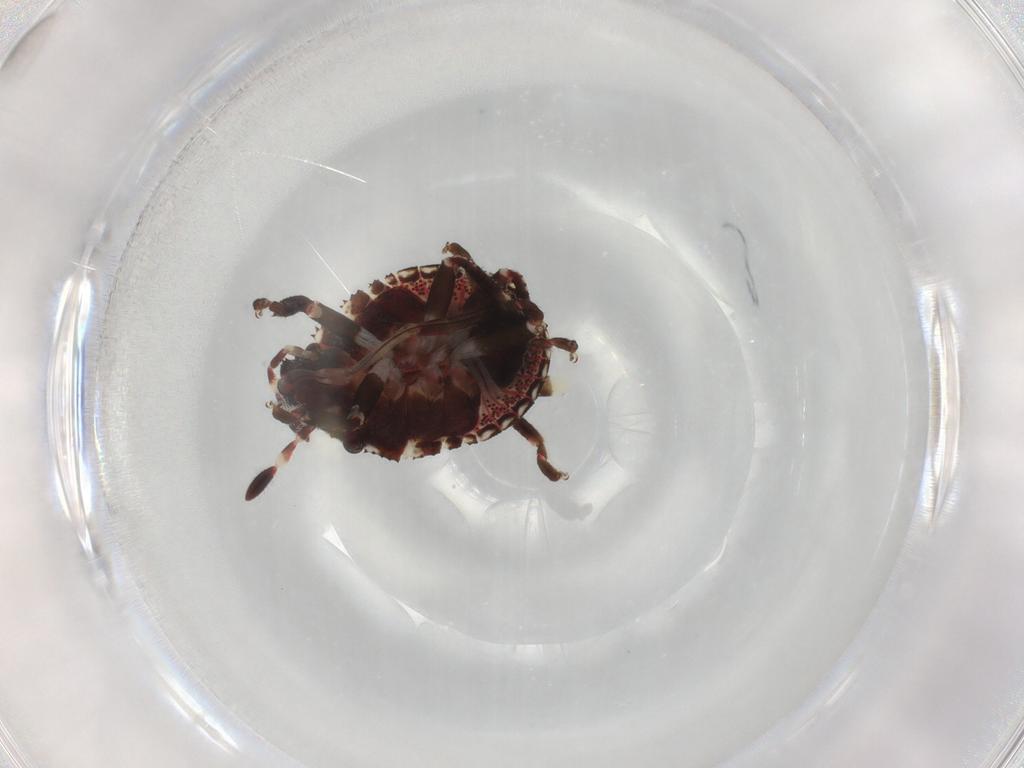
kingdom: Animalia
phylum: Arthropoda
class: Insecta
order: Hemiptera
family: Scutelleridae
